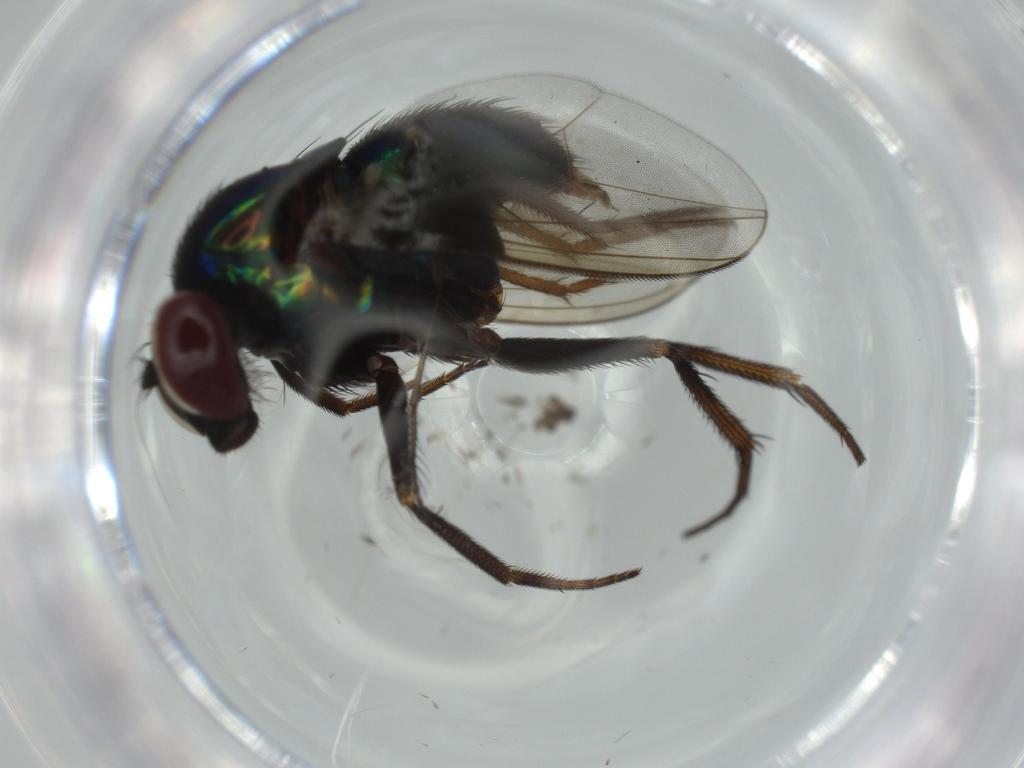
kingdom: Animalia
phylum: Arthropoda
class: Insecta
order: Diptera
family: Dolichopodidae
